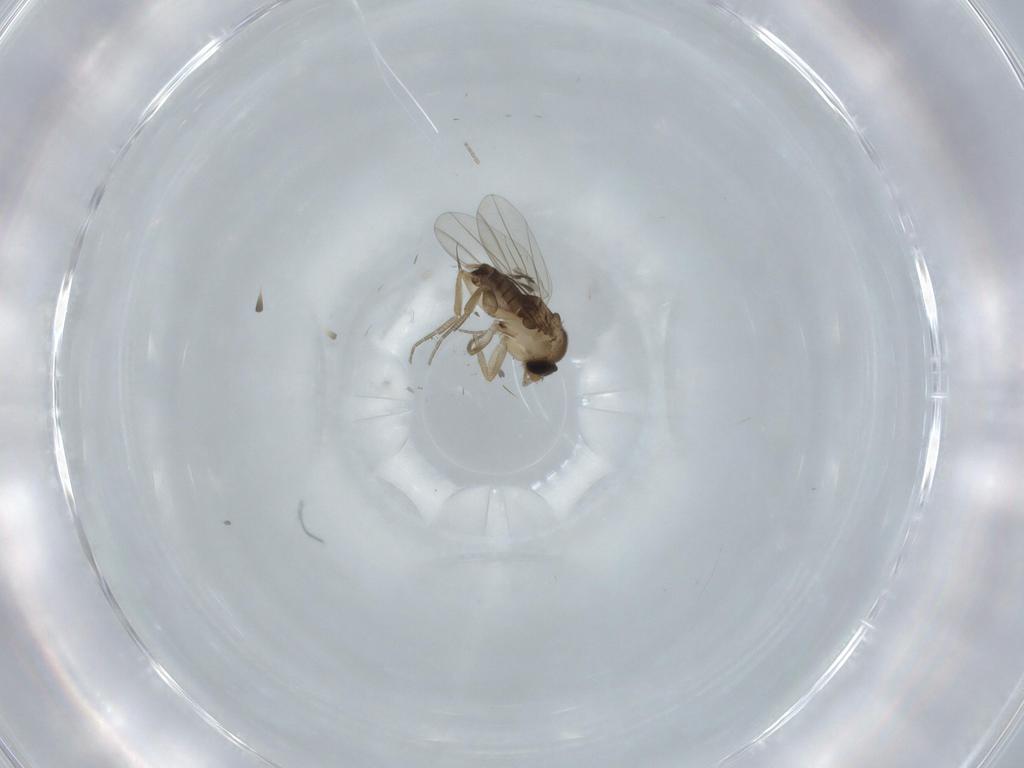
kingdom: Animalia
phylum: Arthropoda
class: Insecta
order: Diptera
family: Phoridae
